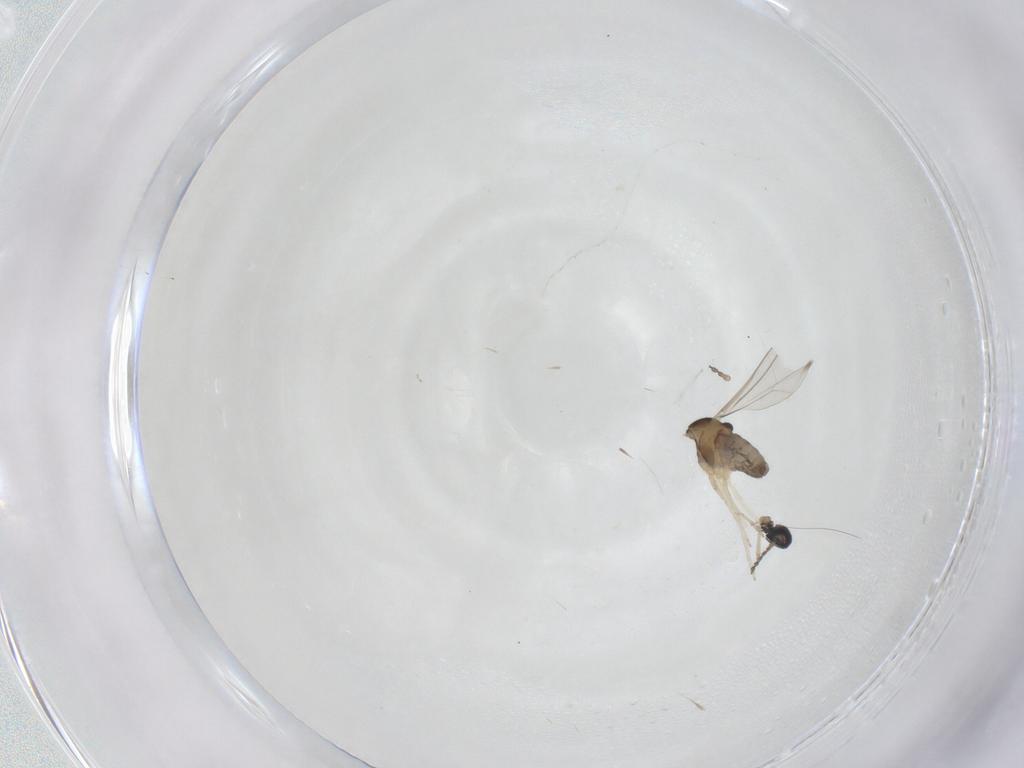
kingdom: Animalia
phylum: Arthropoda
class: Insecta
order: Diptera
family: Cecidomyiidae
